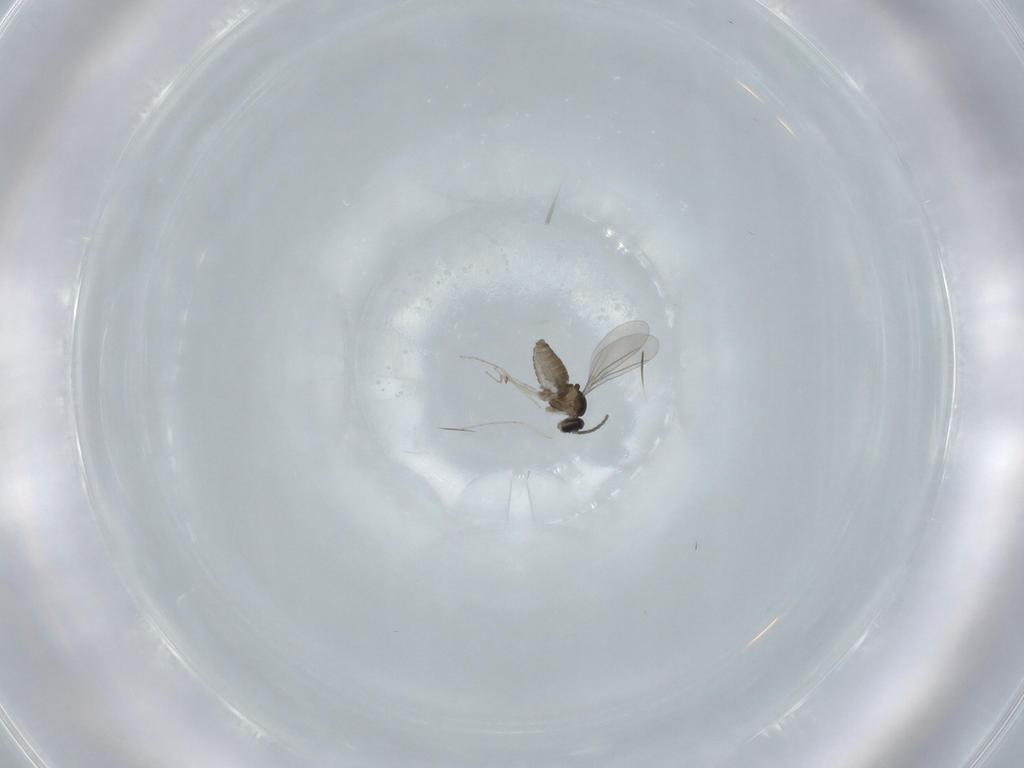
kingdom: Animalia
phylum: Arthropoda
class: Insecta
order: Diptera
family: Cecidomyiidae
